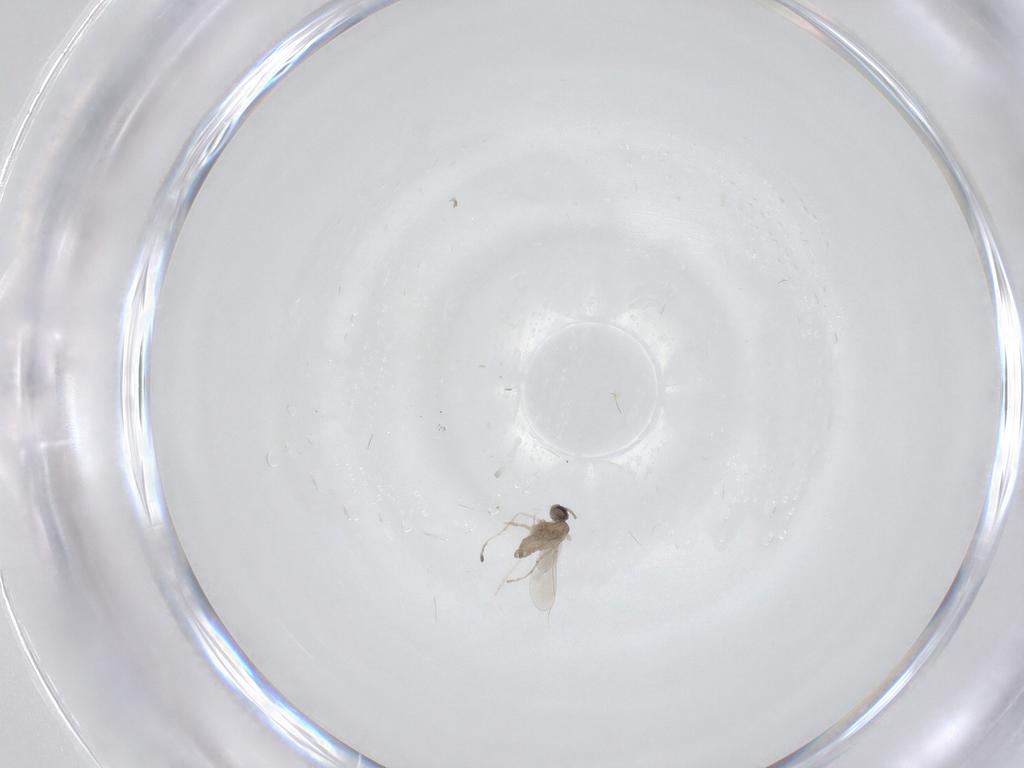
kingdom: Animalia
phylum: Arthropoda
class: Insecta
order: Diptera
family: Cecidomyiidae
